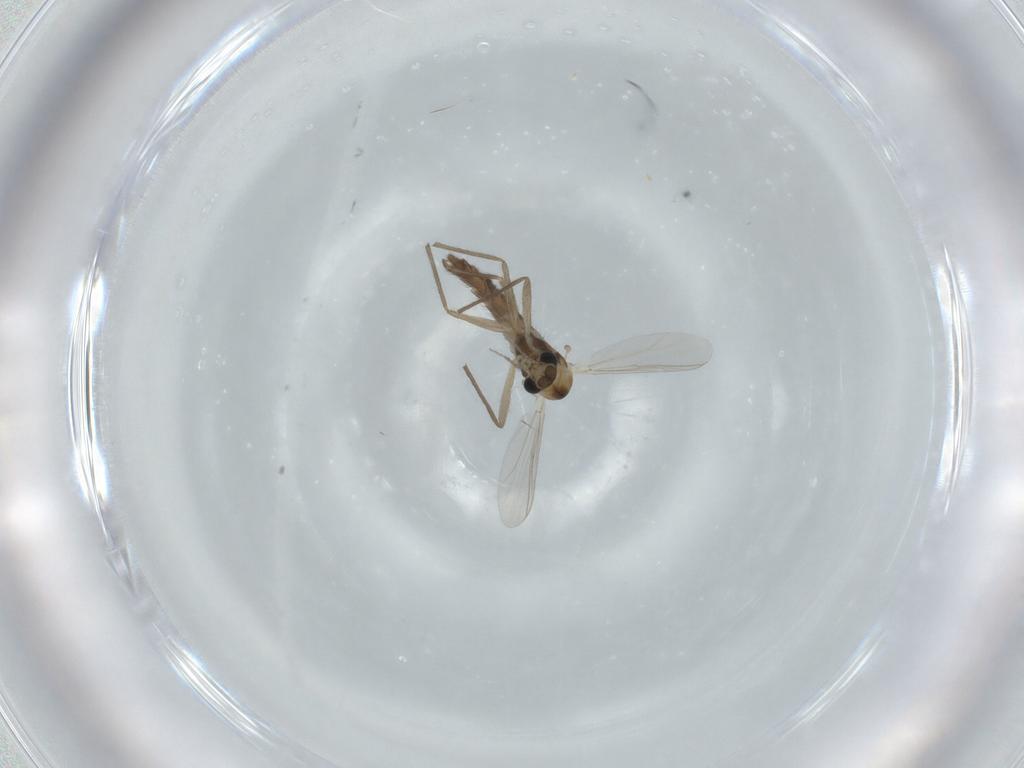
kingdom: Animalia
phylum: Arthropoda
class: Insecta
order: Diptera
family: Chironomidae
